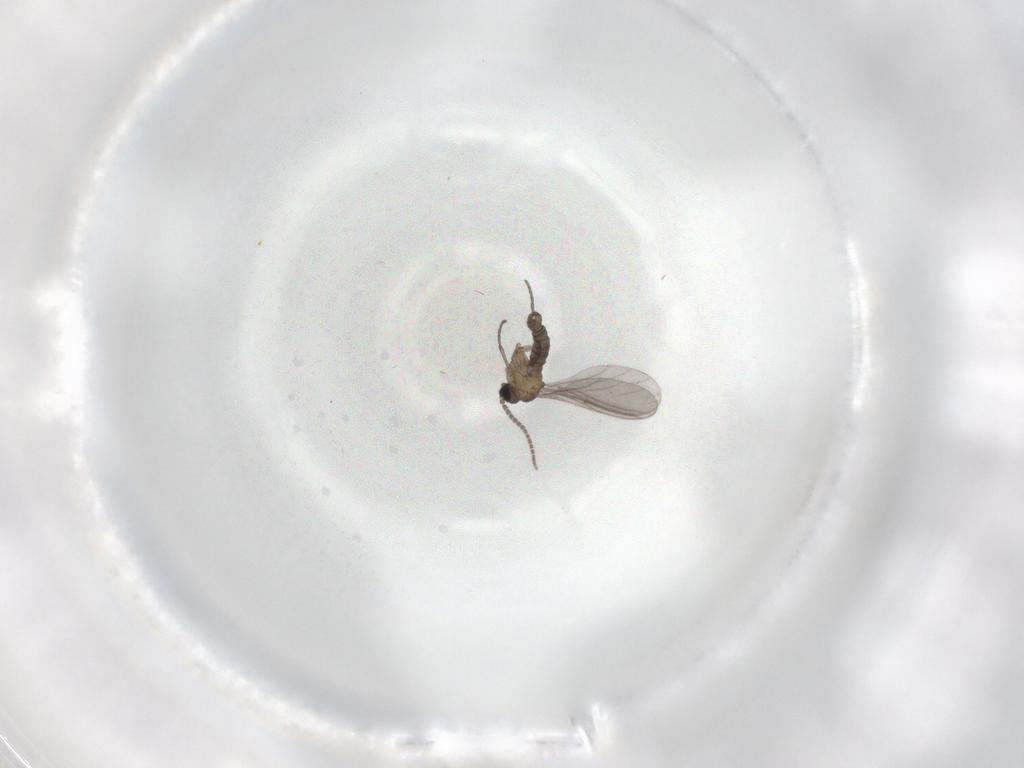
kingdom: Animalia
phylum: Arthropoda
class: Insecta
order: Diptera
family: Sciaridae
